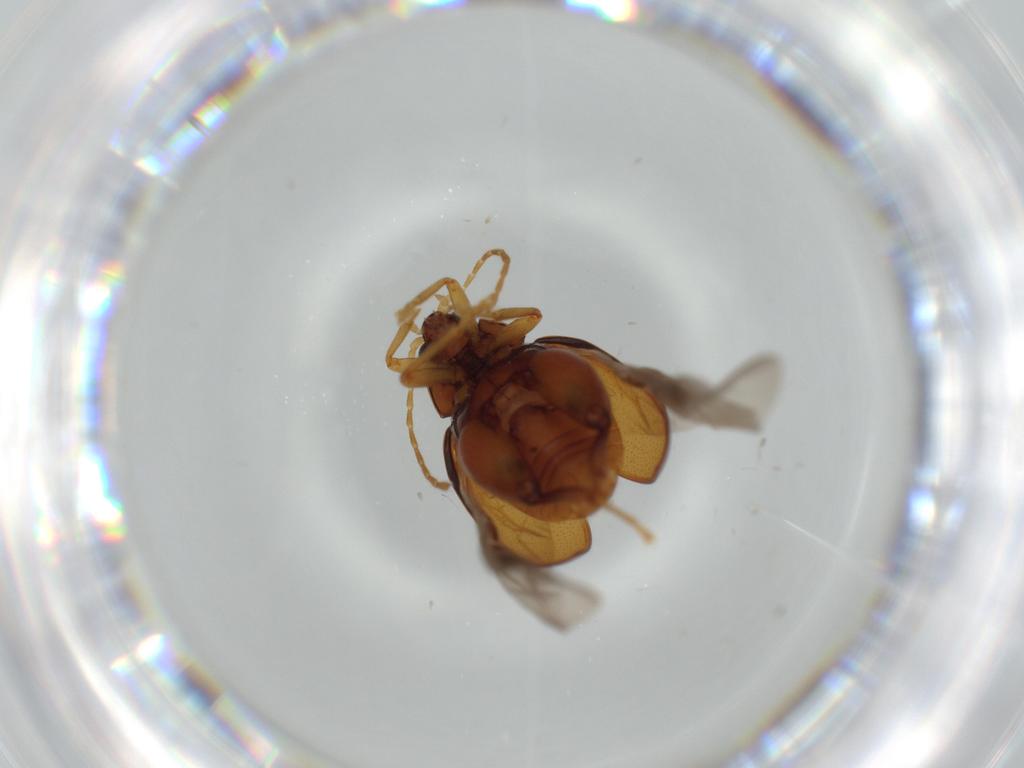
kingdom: Animalia
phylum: Arthropoda
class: Insecta
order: Coleoptera
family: Chrysomelidae
